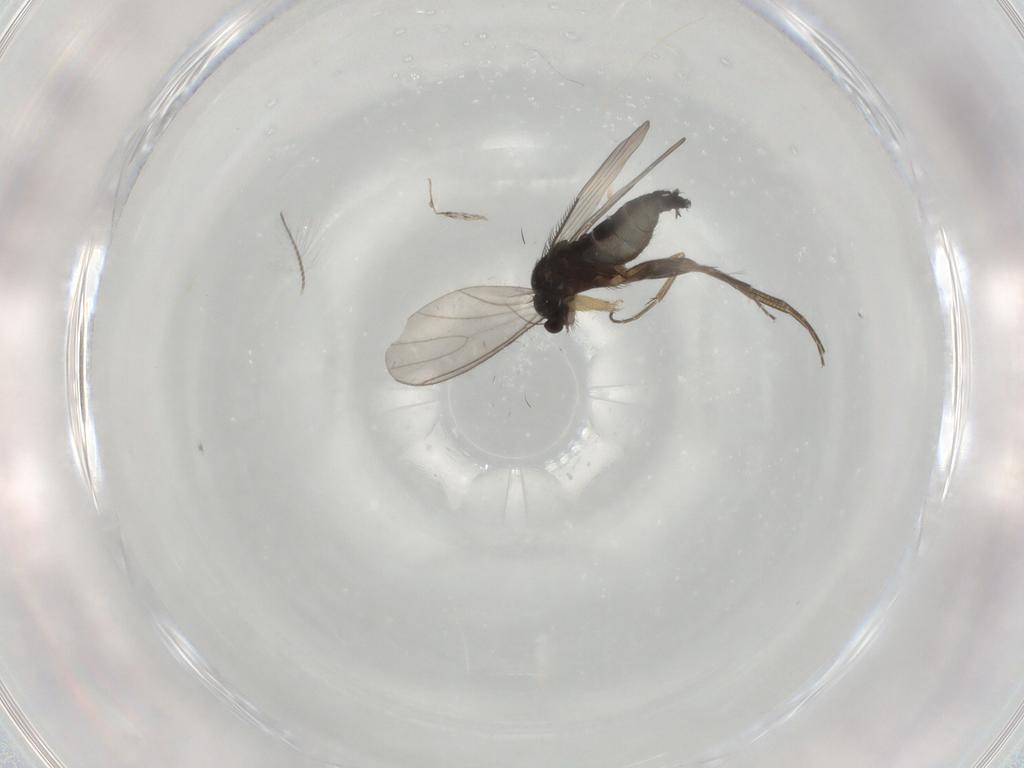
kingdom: Animalia
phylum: Arthropoda
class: Insecta
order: Diptera
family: Phoridae
